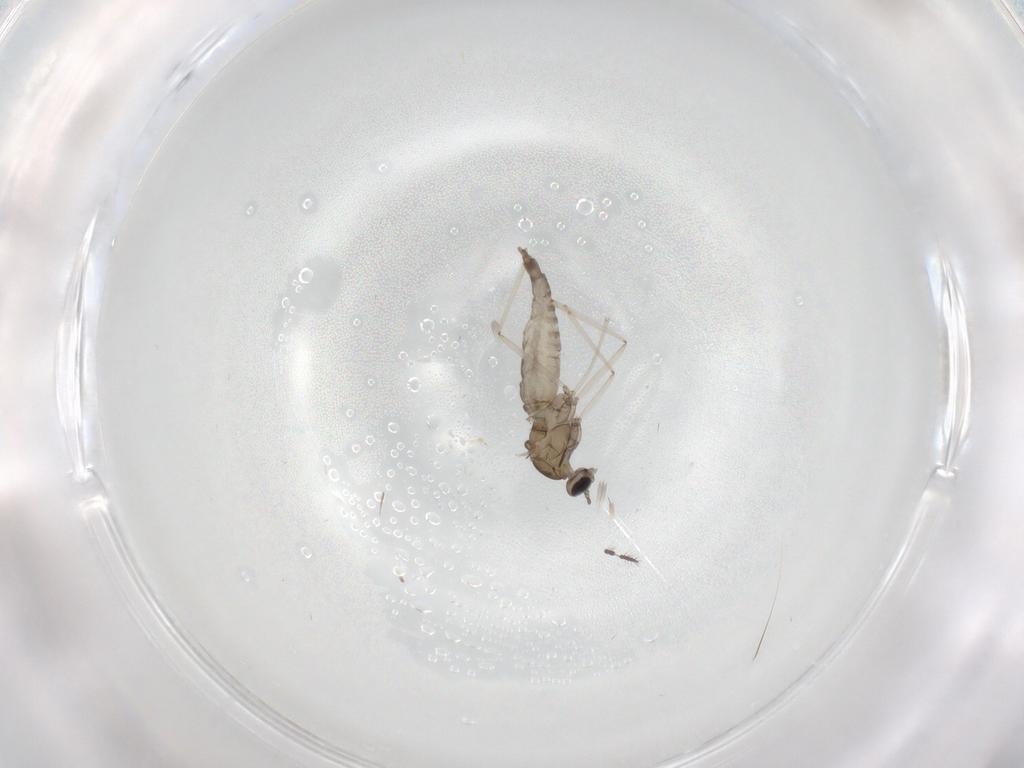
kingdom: Animalia
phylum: Arthropoda
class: Insecta
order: Diptera
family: Cecidomyiidae
